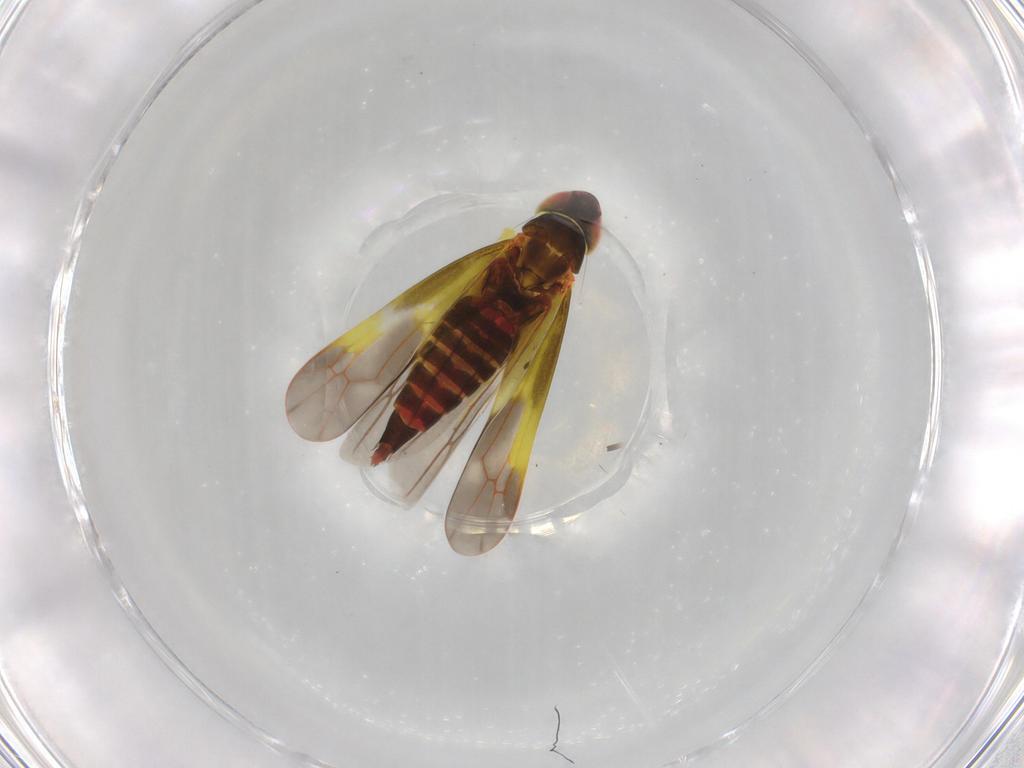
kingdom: Animalia
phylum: Arthropoda
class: Insecta
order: Hemiptera
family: Cicadellidae
